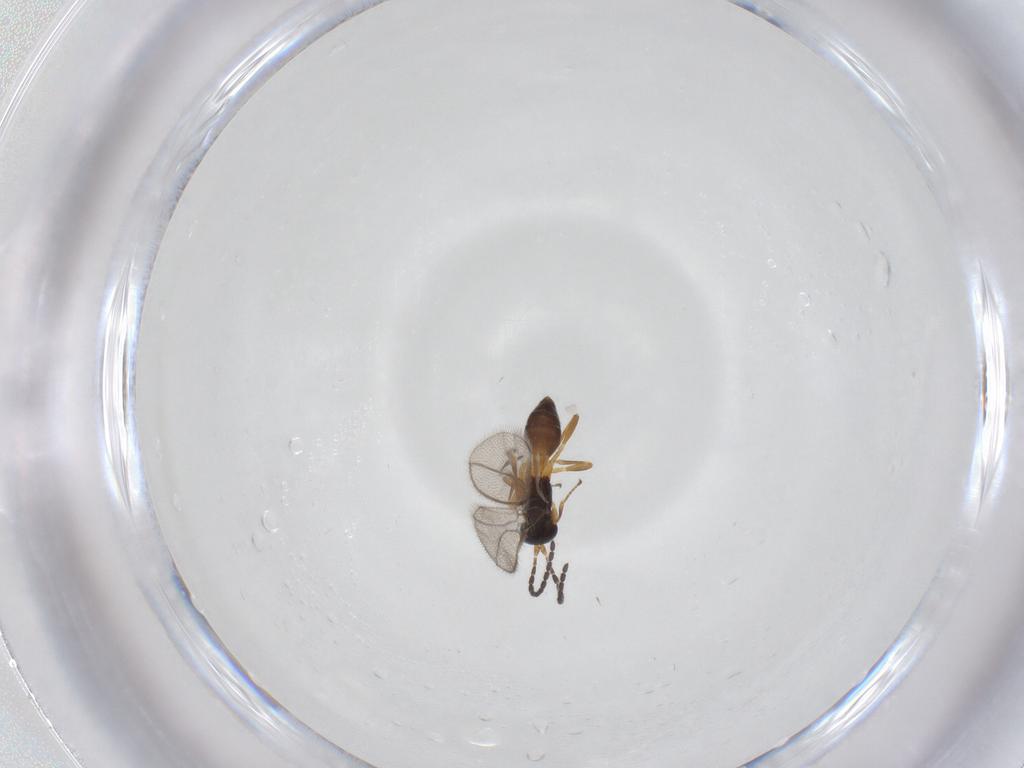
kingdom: Animalia
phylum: Arthropoda
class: Insecta
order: Hymenoptera
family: Braconidae
